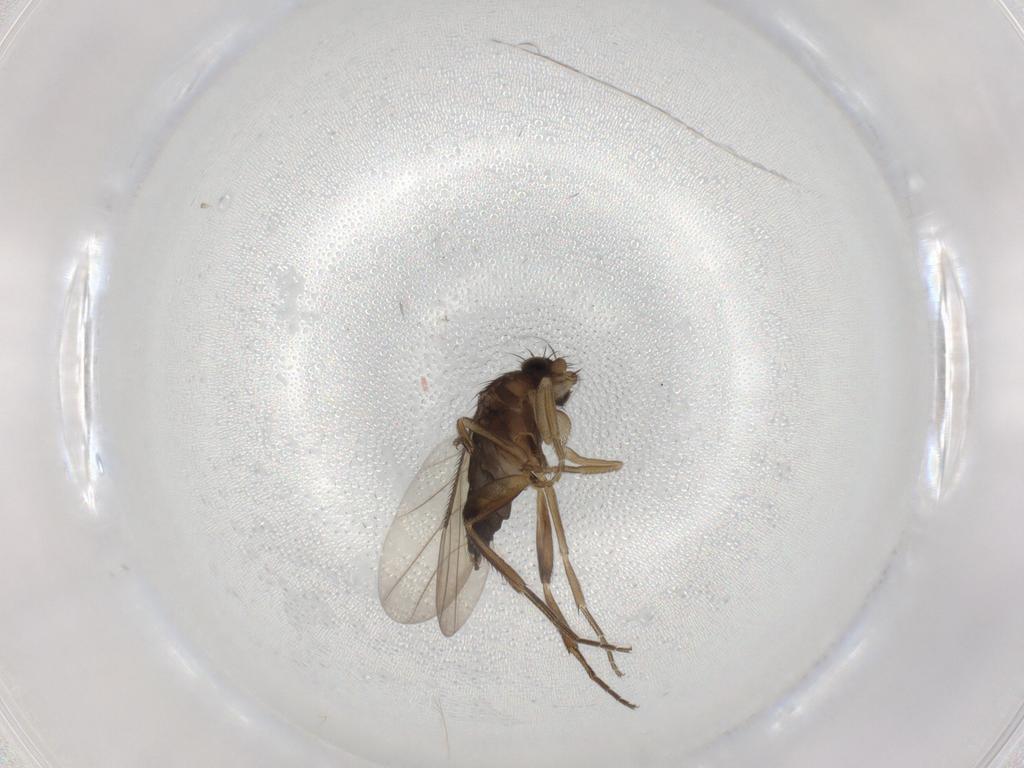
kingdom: Animalia
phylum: Arthropoda
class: Insecta
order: Diptera
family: Phoridae
